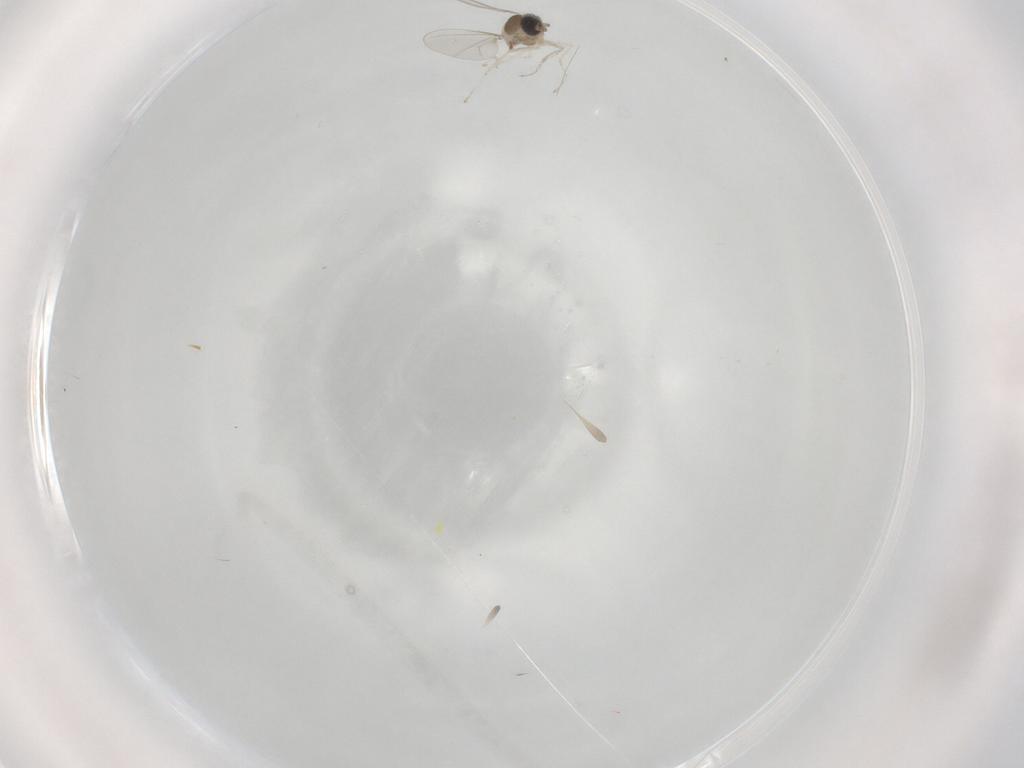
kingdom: Animalia
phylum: Arthropoda
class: Insecta
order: Diptera
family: Cecidomyiidae
